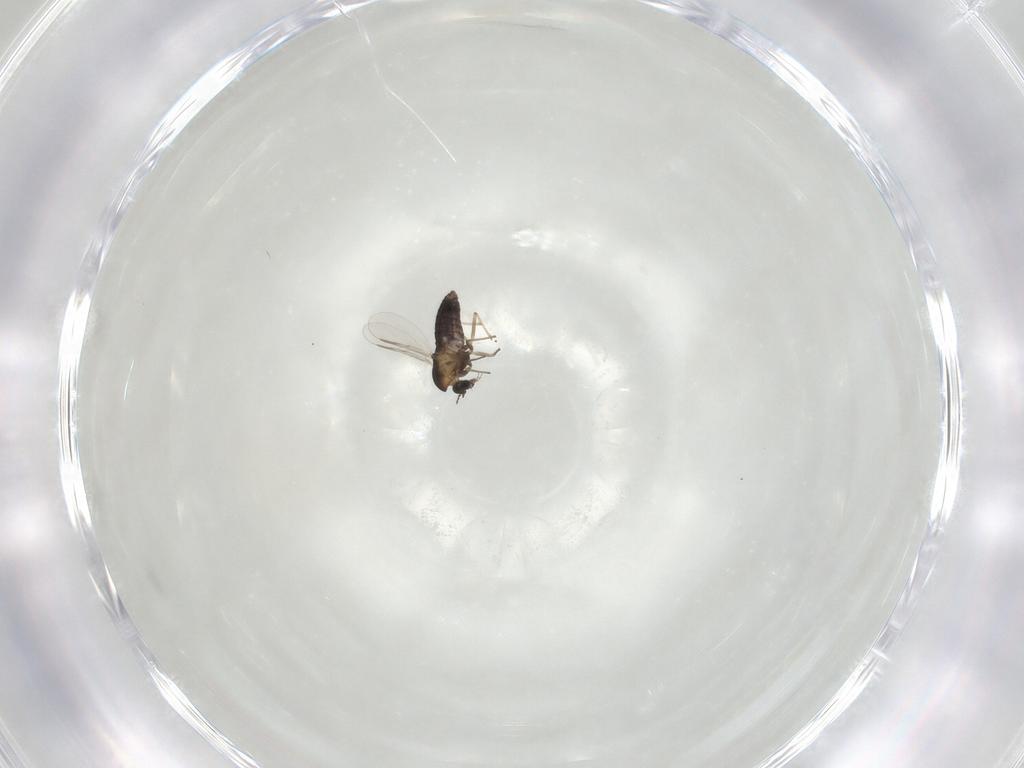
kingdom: Animalia
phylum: Arthropoda
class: Insecta
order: Diptera
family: Chironomidae
